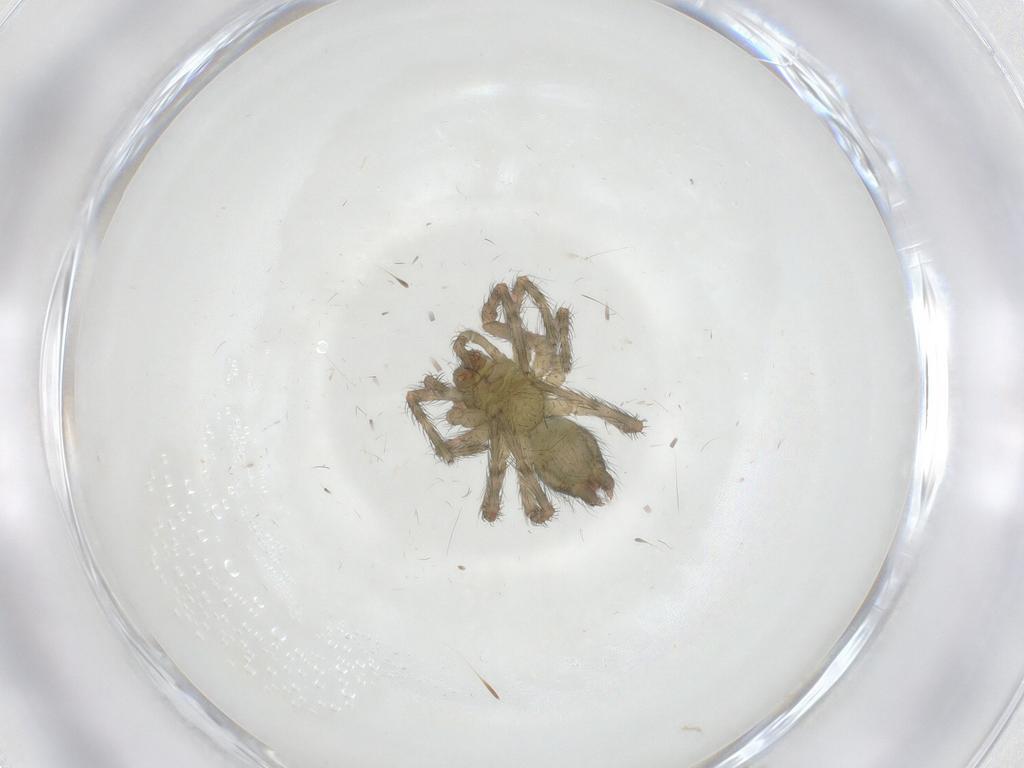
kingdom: Animalia
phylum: Arthropoda
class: Arachnida
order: Araneae
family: Agelenidae
